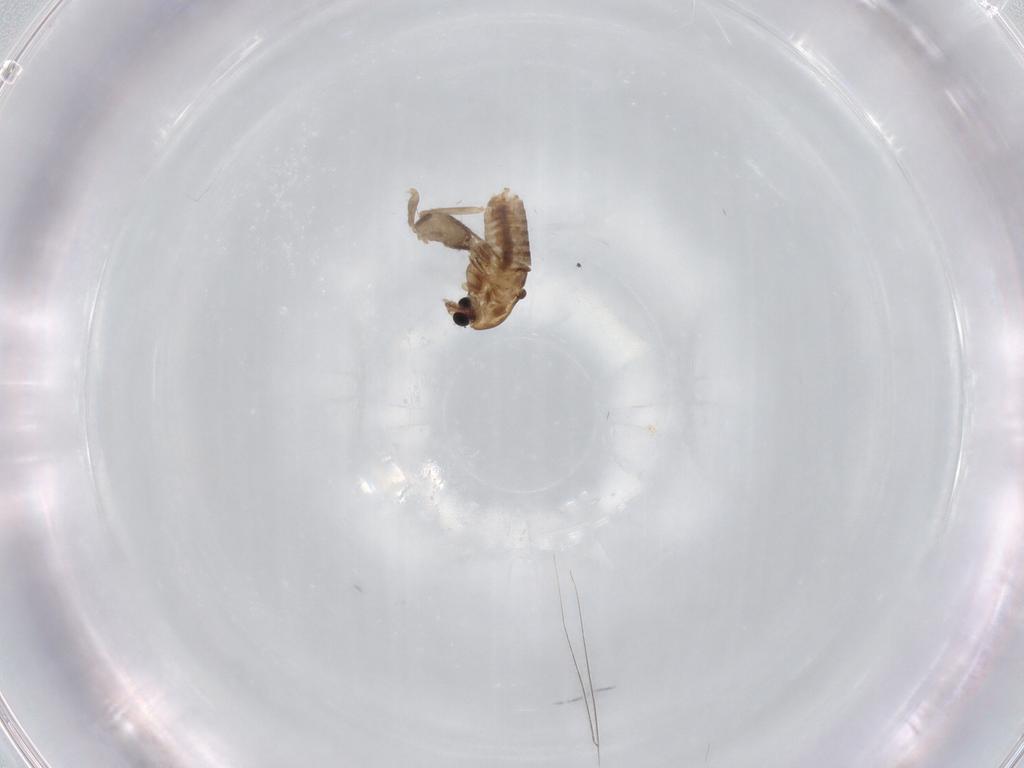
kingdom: Animalia
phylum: Arthropoda
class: Insecta
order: Diptera
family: Chironomidae
